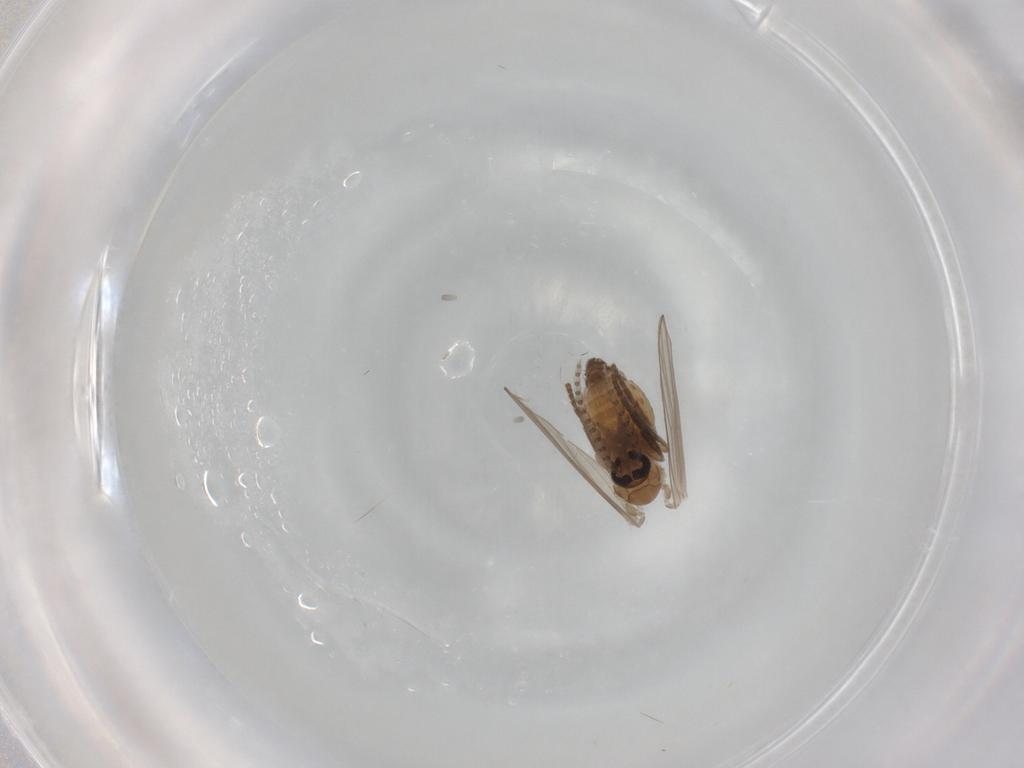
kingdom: Animalia
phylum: Arthropoda
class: Insecta
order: Diptera
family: Psychodidae
